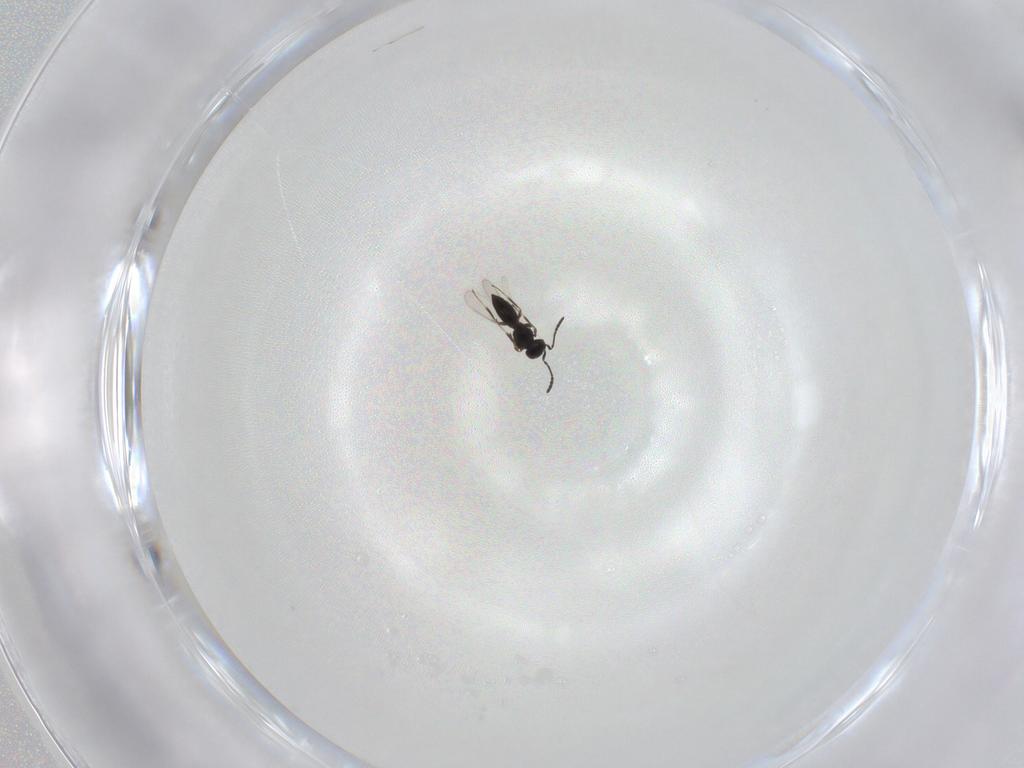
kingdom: Animalia
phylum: Arthropoda
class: Insecta
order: Hymenoptera
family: Braconidae
